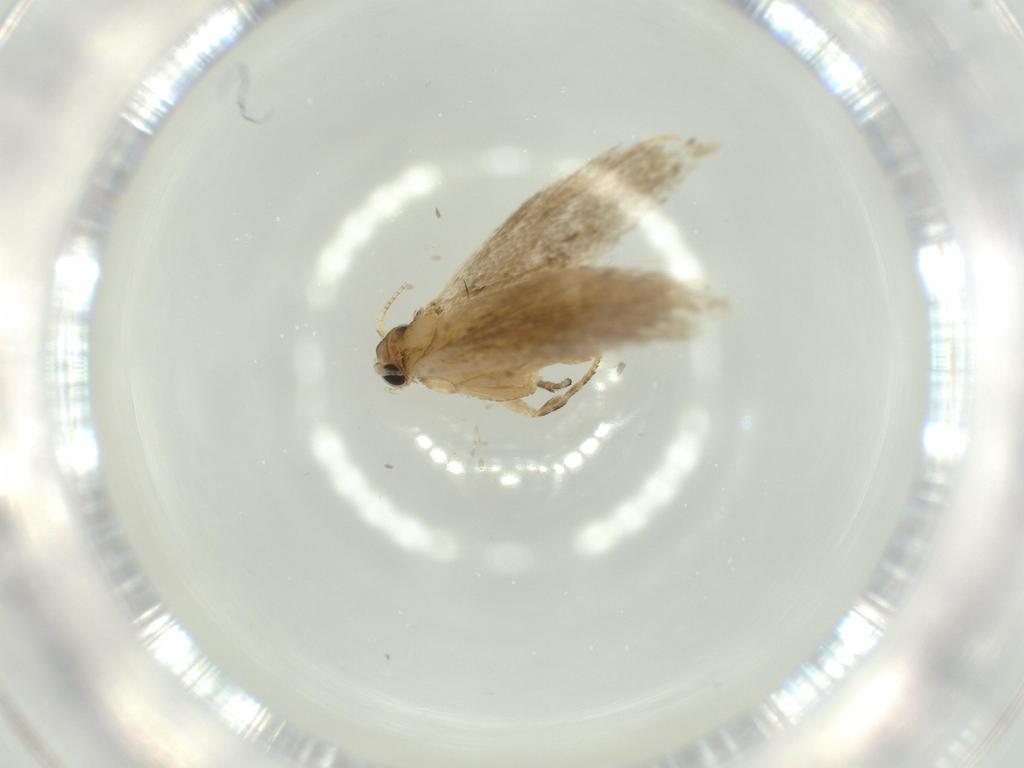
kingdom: Animalia
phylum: Arthropoda
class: Insecta
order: Lepidoptera
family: Tineidae
